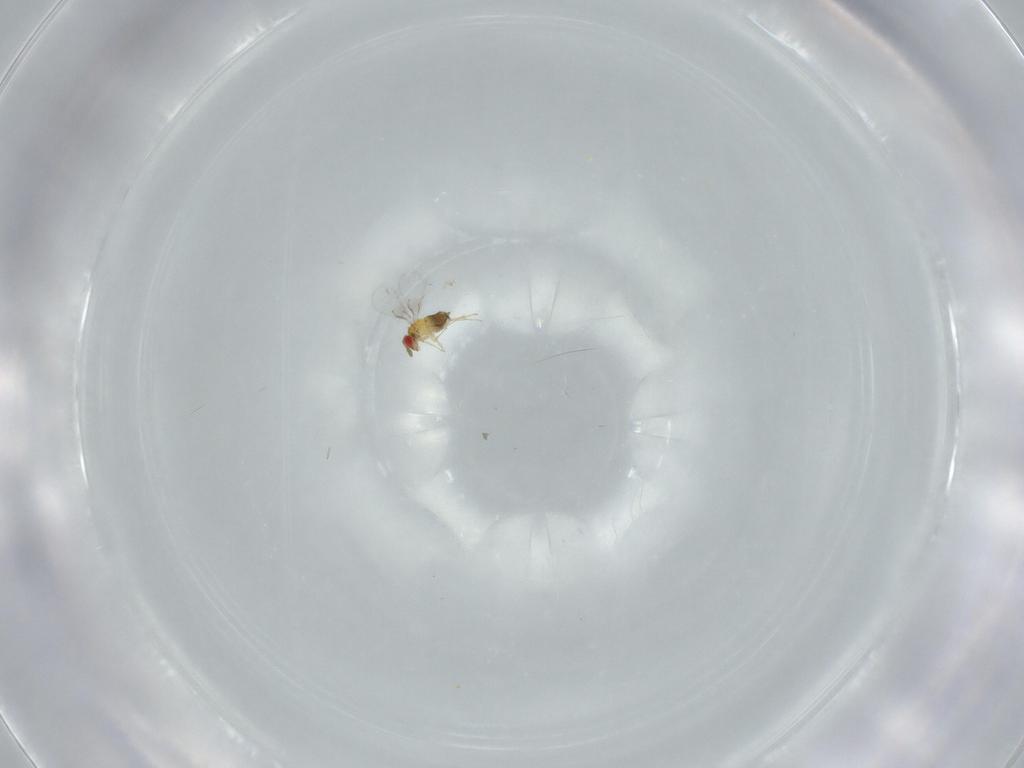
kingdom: Animalia
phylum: Arthropoda
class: Insecta
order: Hymenoptera
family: Trichogrammatidae
